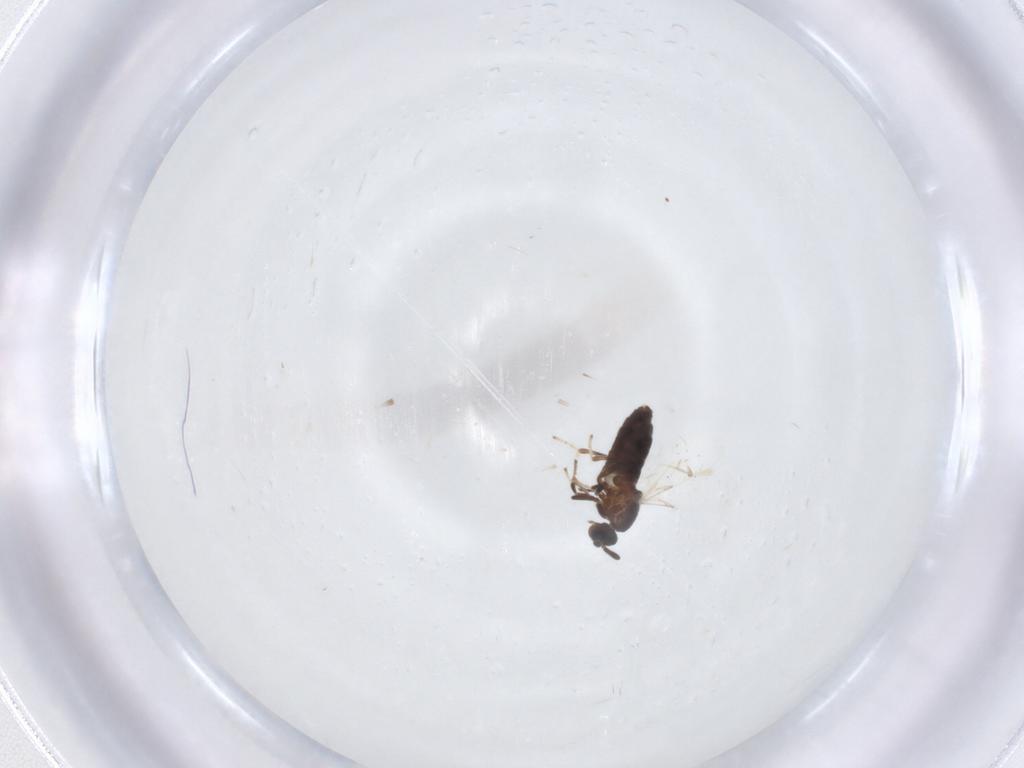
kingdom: Animalia
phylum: Arthropoda
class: Insecta
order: Diptera
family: Scatopsidae
